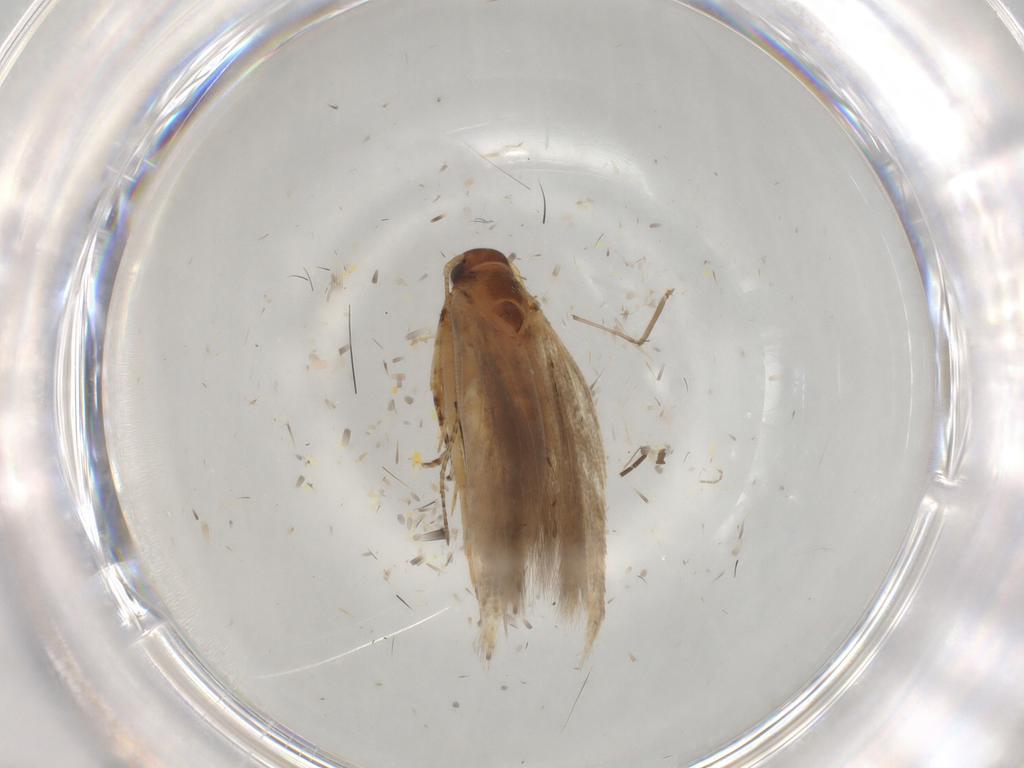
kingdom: Animalia
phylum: Arthropoda
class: Insecta
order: Lepidoptera
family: Gelechiidae
